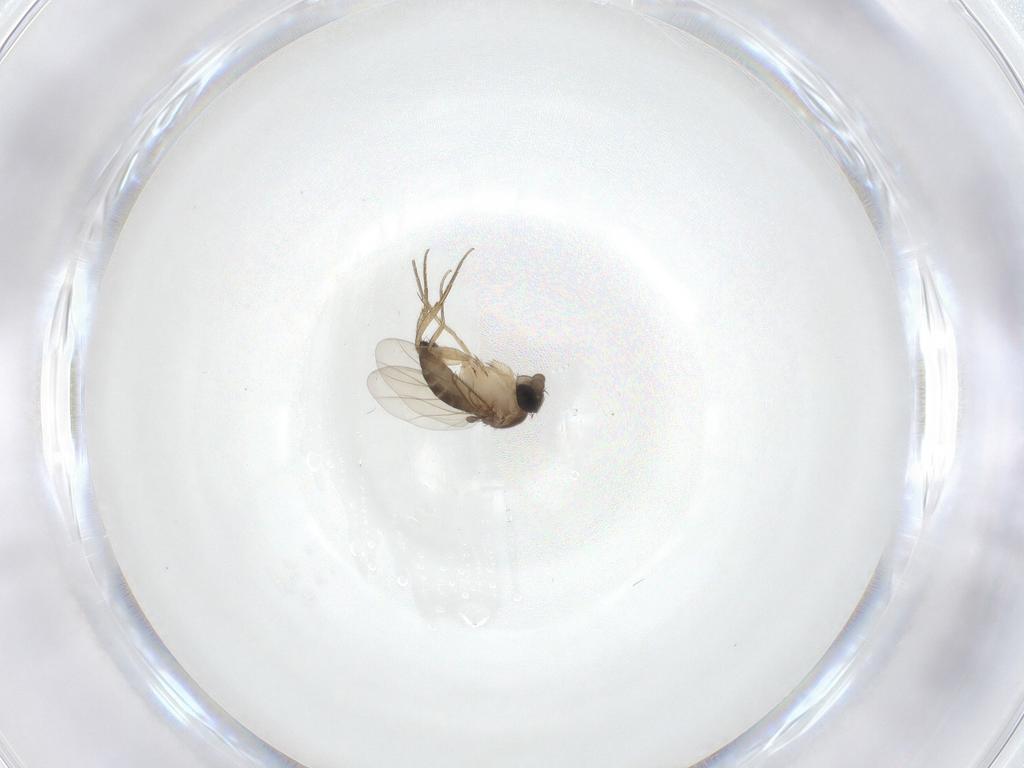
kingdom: Animalia
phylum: Arthropoda
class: Insecta
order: Diptera
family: Phoridae
